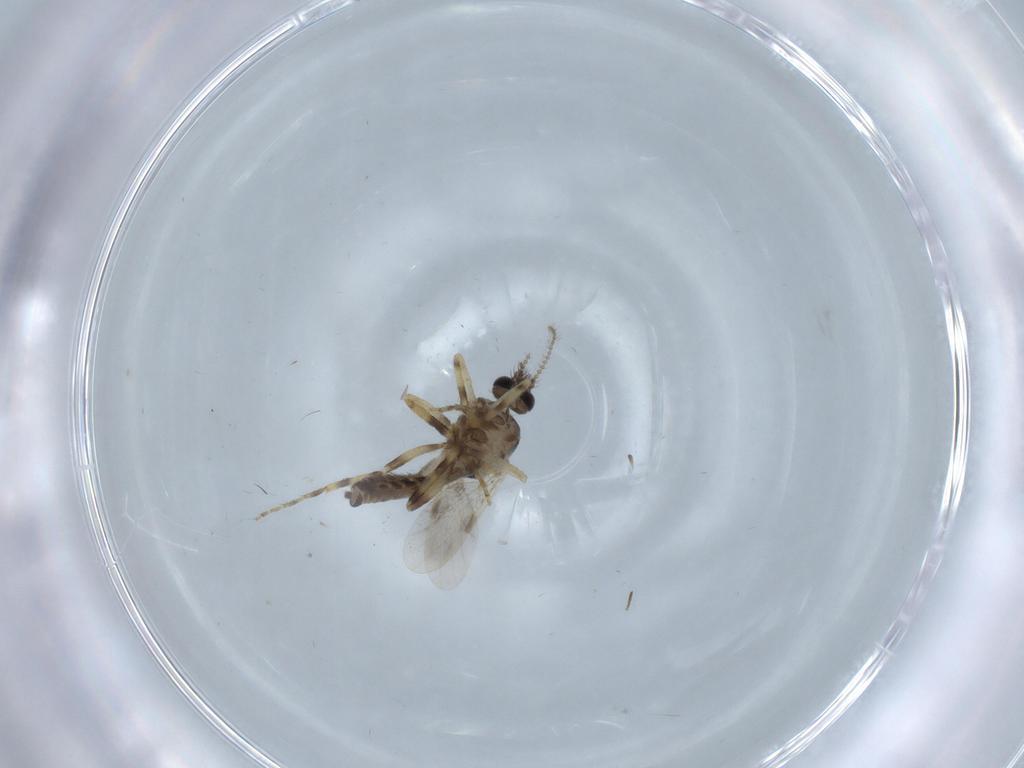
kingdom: Animalia
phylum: Arthropoda
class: Insecta
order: Diptera
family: Ceratopogonidae
